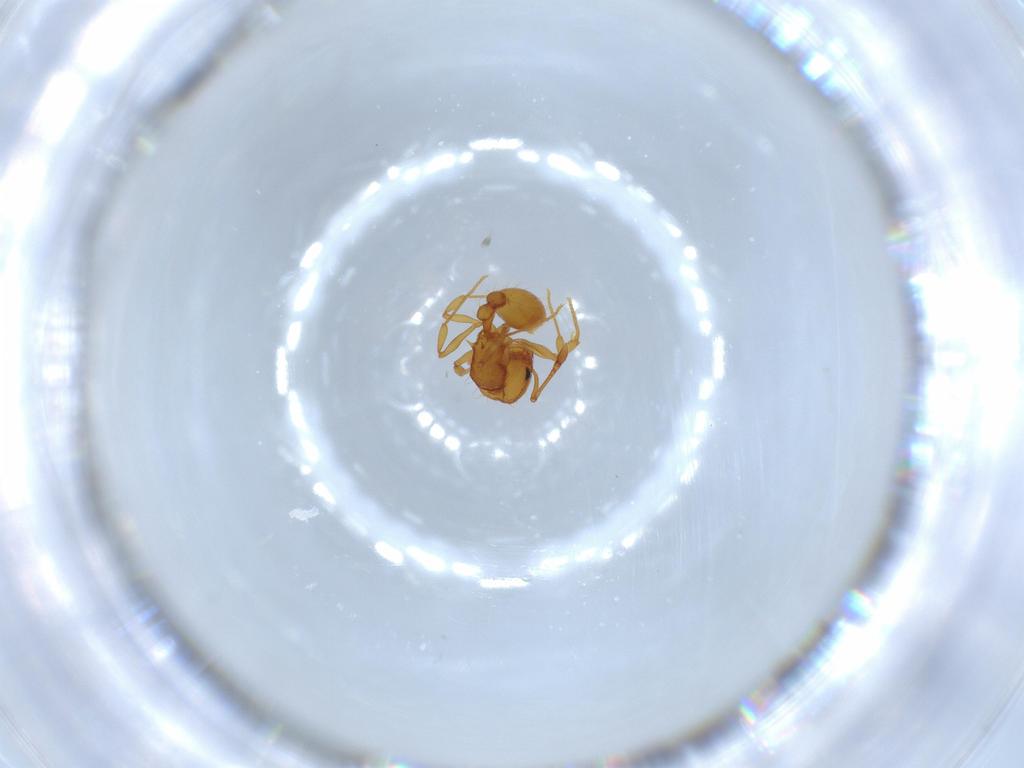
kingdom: Animalia
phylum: Arthropoda
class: Insecta
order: Hymenoptera
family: Formicidae
